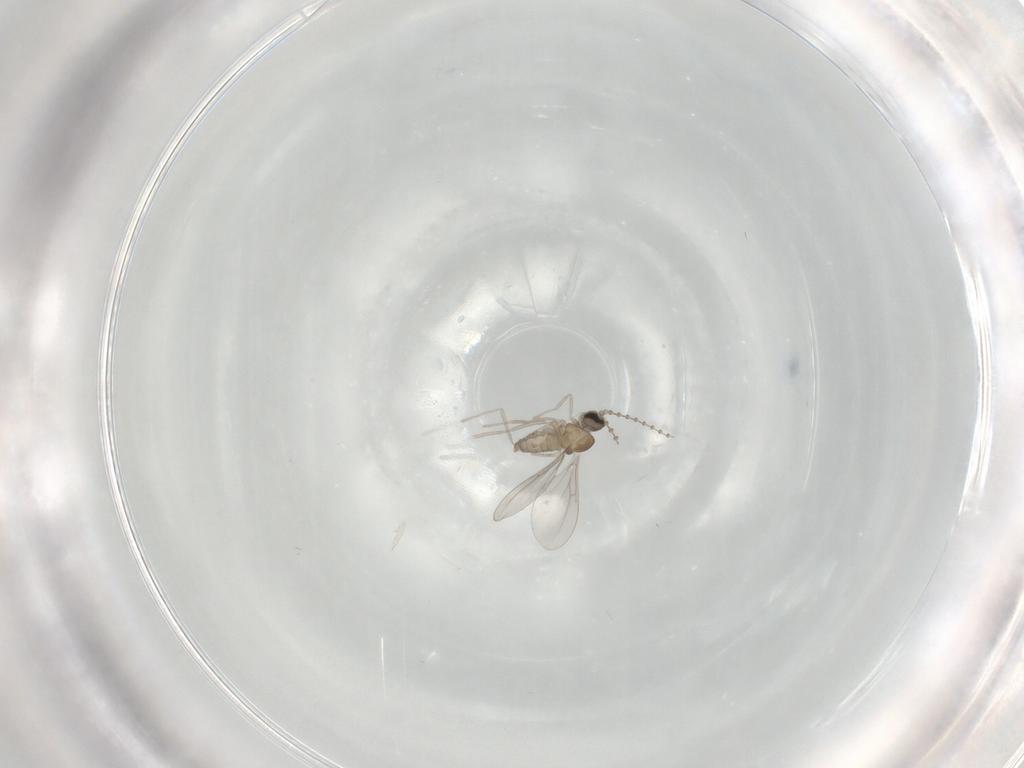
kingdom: Animalia
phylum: Arthropoda
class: Insecta
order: Diptera
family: Cecidomyiidae
